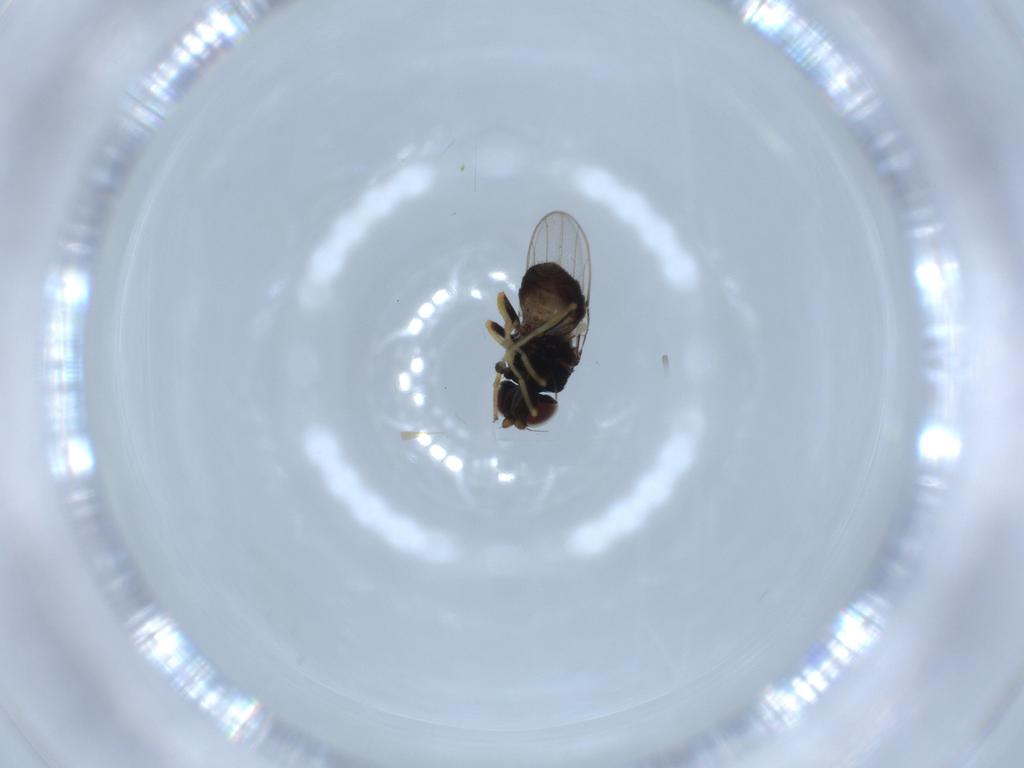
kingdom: Animalia
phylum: Arthropoda
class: Insecta
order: Diptera
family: Chloropidae
